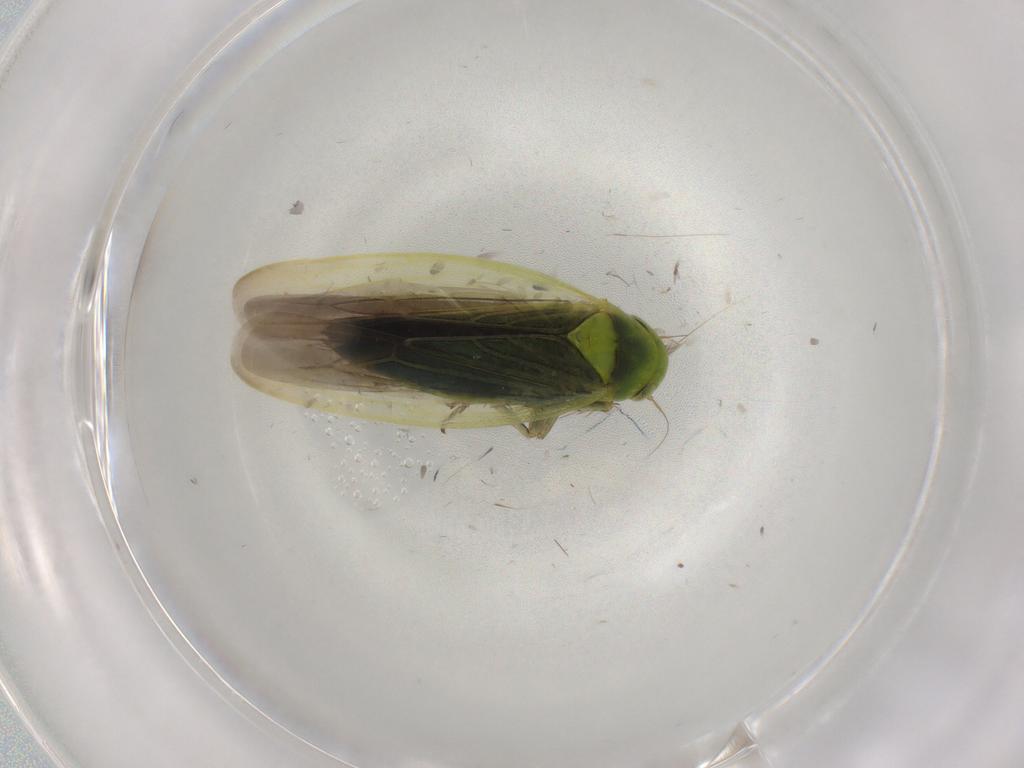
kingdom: Animalia
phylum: Arthropoda
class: Insecta
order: Hemiptera
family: Cicadellidae
